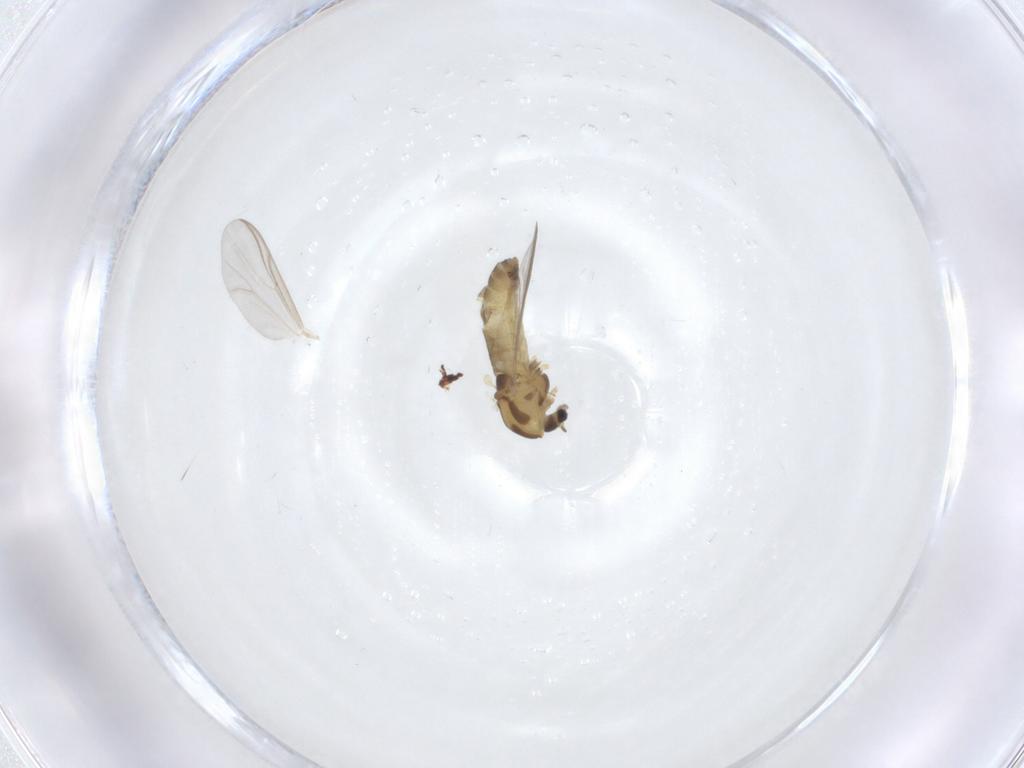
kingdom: Animalia
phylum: Arthropoda
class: Insecta
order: Diptera
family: Chironomidae
